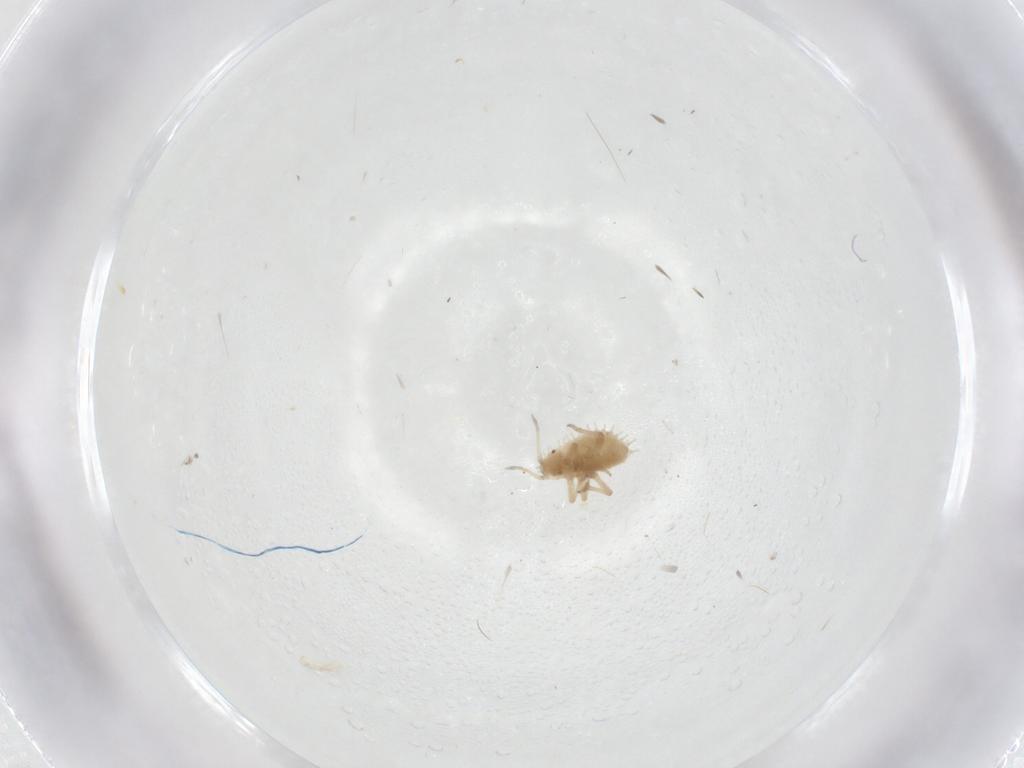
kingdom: Animalia
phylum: Arthropoda
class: Insecta
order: Hemiptera
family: Aphididae
